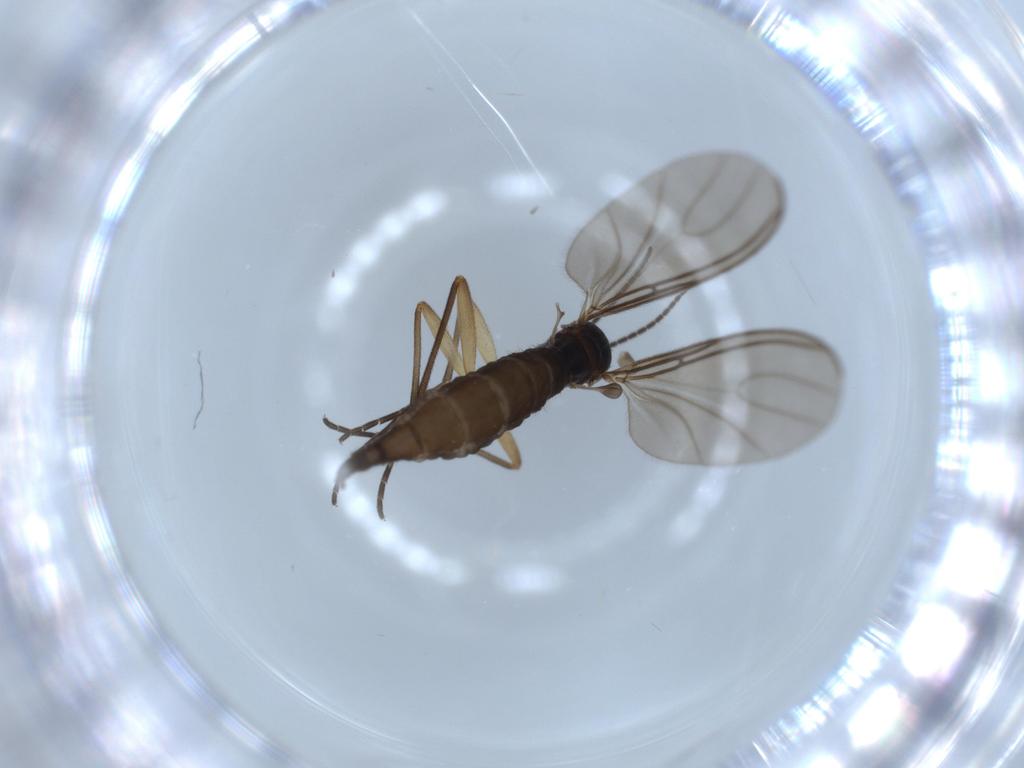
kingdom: Animalia
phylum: Arthropoda
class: Insecta
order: Diptera
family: Sciaridae
